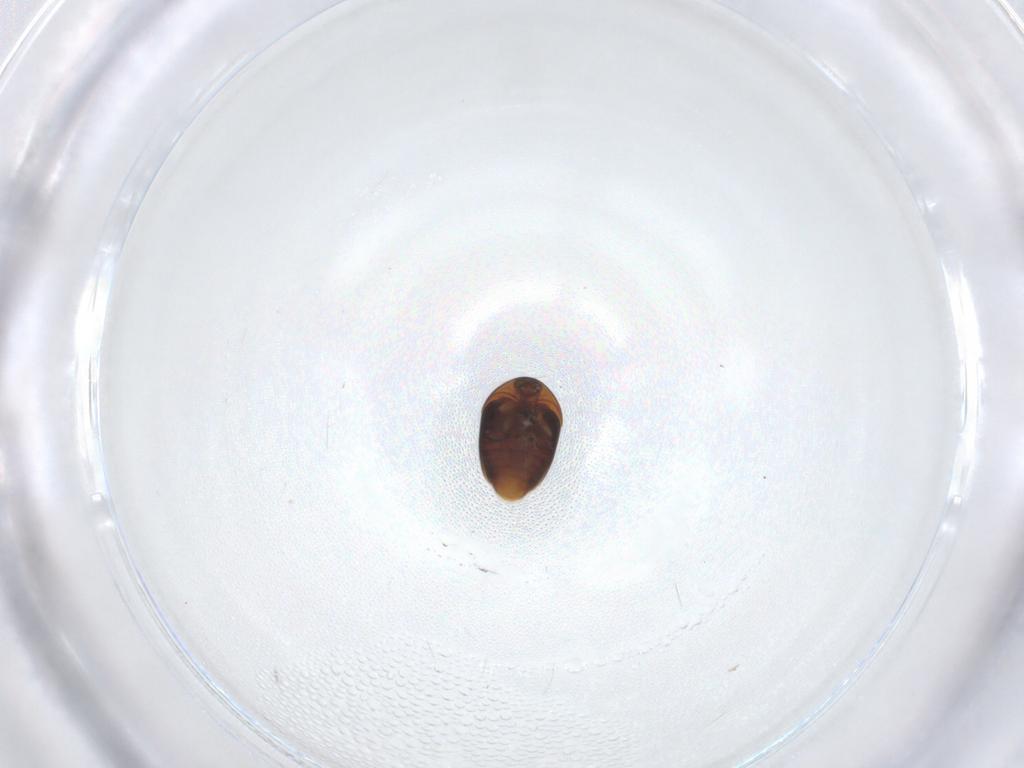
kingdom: Animalia
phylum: Arthropoda
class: Insecta
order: Coleoptera
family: Corylophidae
